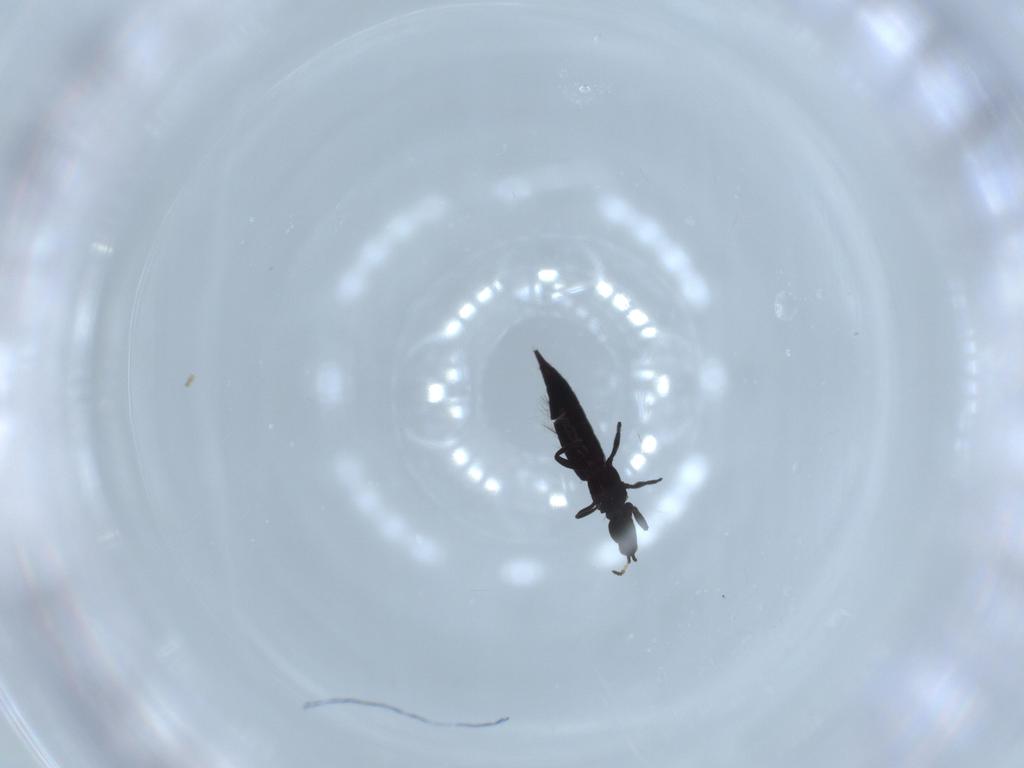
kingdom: Animalia
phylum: Arthropoda
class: Insecta
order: Thysanoptera
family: Phlaeothripidae
